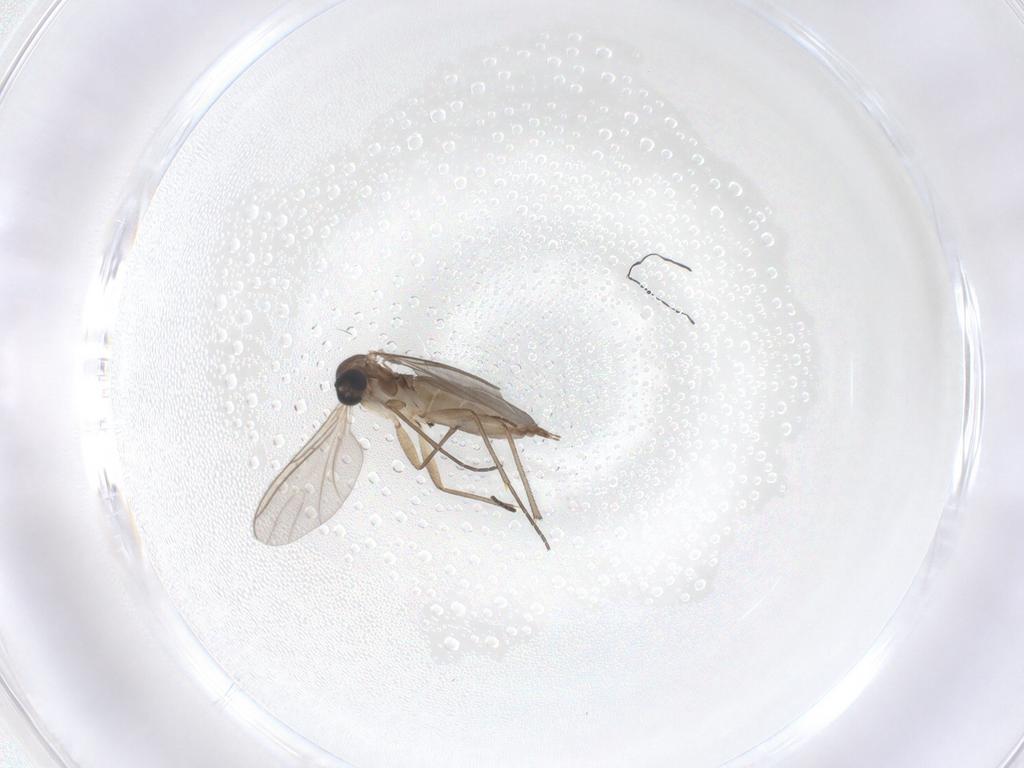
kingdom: Animalia
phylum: Arthropoda
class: Insecta
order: Diptera
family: Sciaridae
